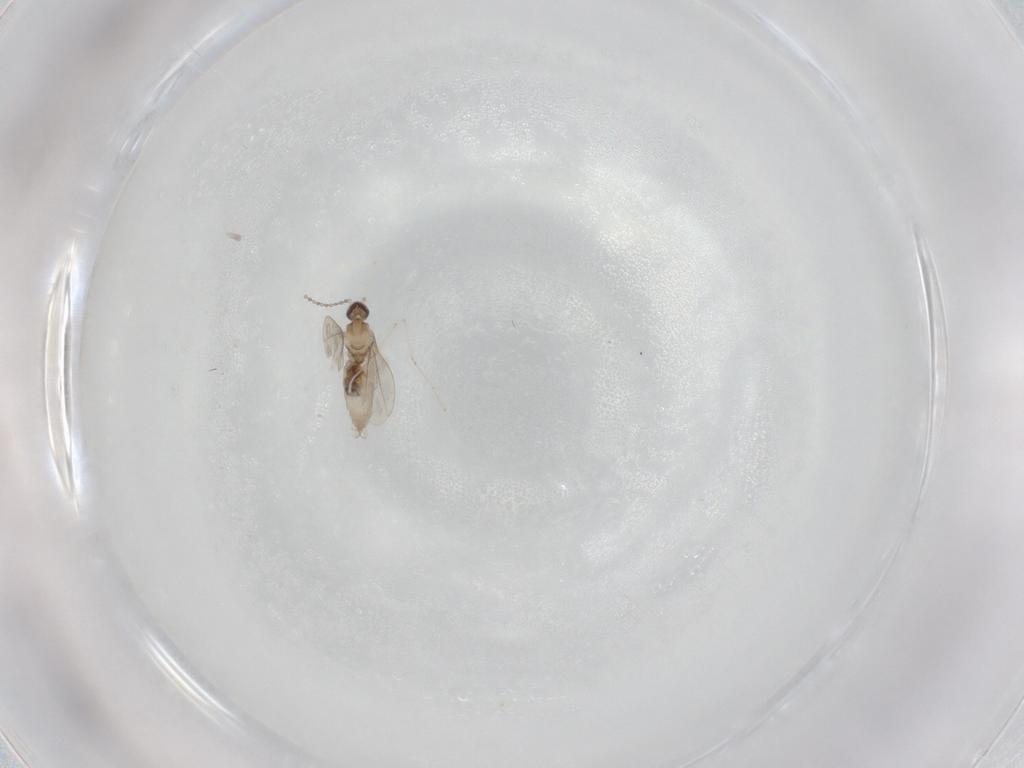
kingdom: Animalia
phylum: Arthropoda
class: Insecta
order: Diptera
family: Cecidomyiidae
